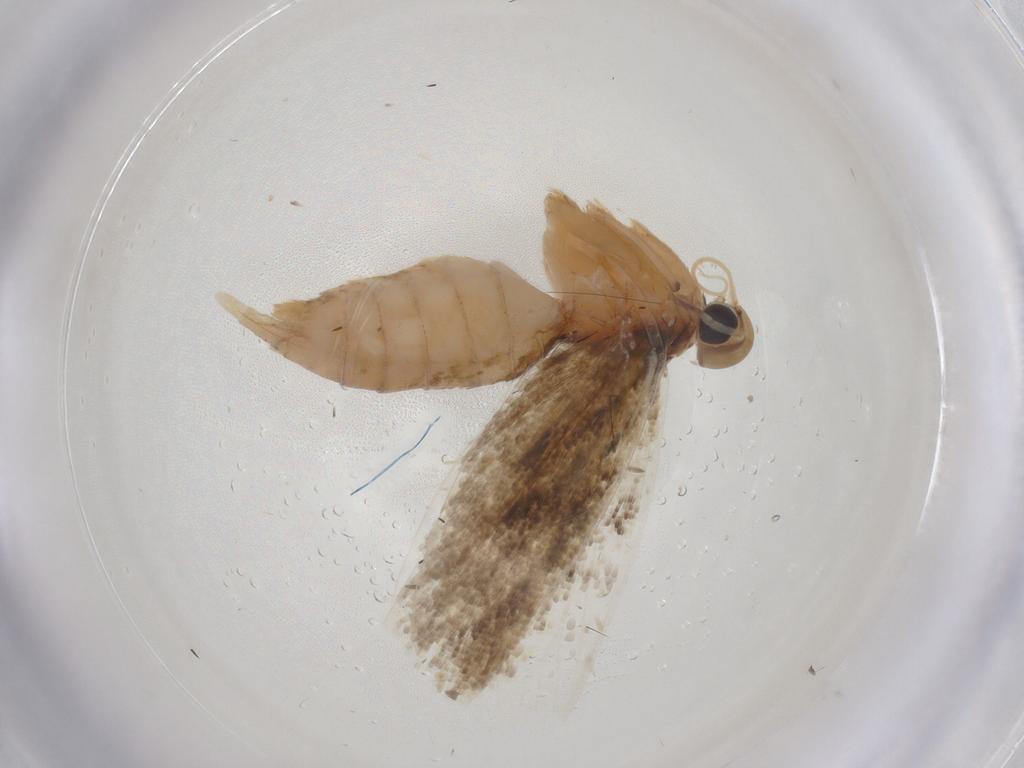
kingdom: Animalia
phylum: Arthropoda
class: Insecta
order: Lepidoptera
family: Gelechiidae
